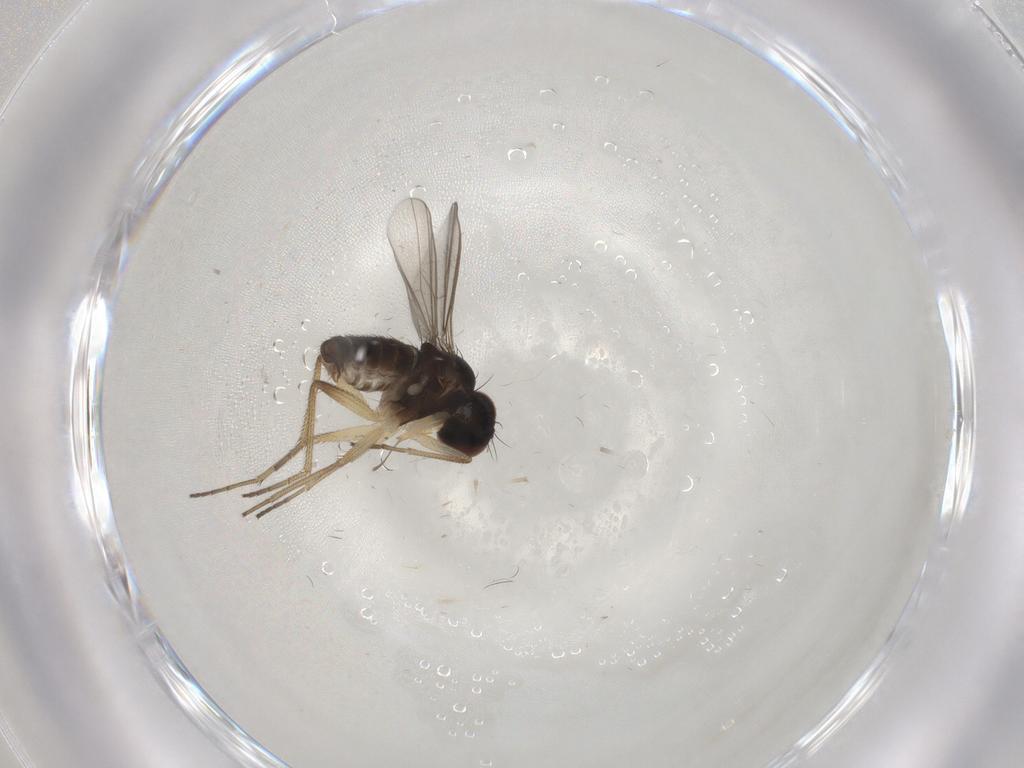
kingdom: Animalia
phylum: Arthropoda
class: Insecta
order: Diptera
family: Dolichopodidae
